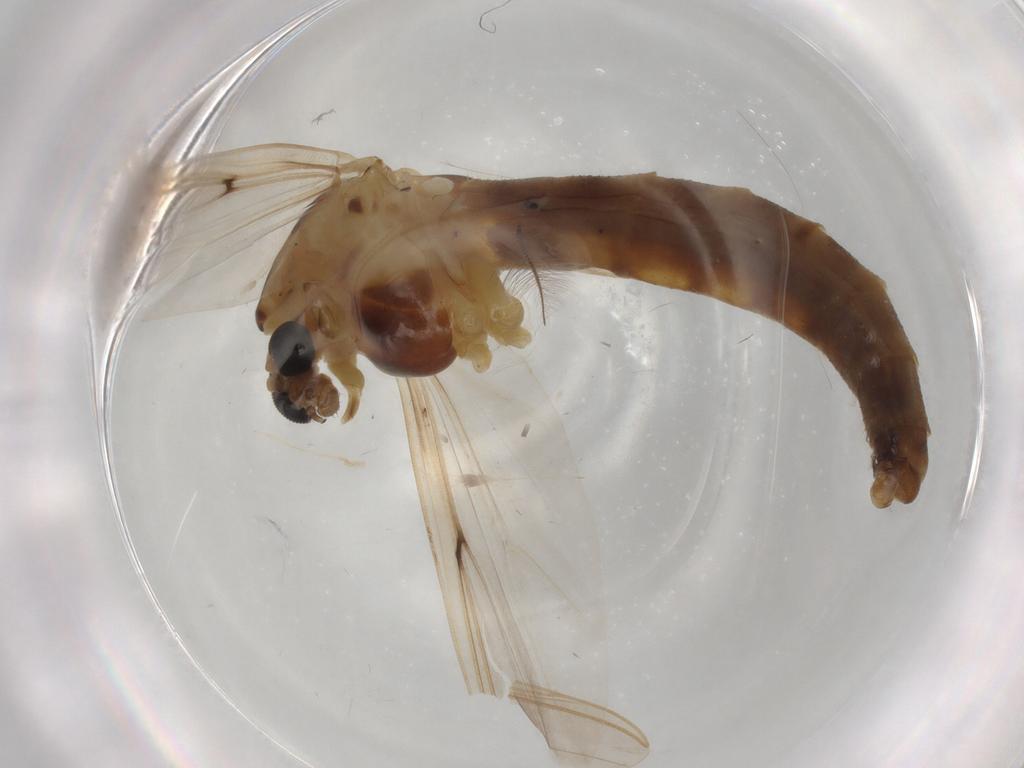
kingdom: Animalia
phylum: Arthropoda
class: Insecta
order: Diptera
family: Chironomidae
